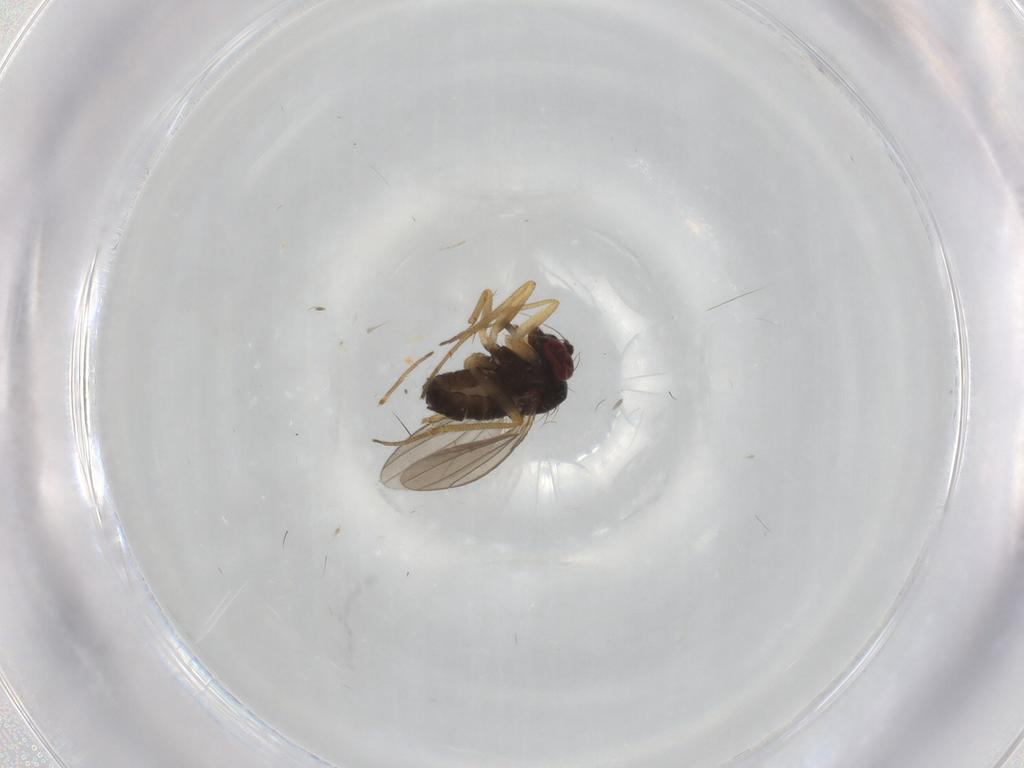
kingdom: Animalia
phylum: Arthropoda
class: Insecta
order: Diptera
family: Dolichopodidae
